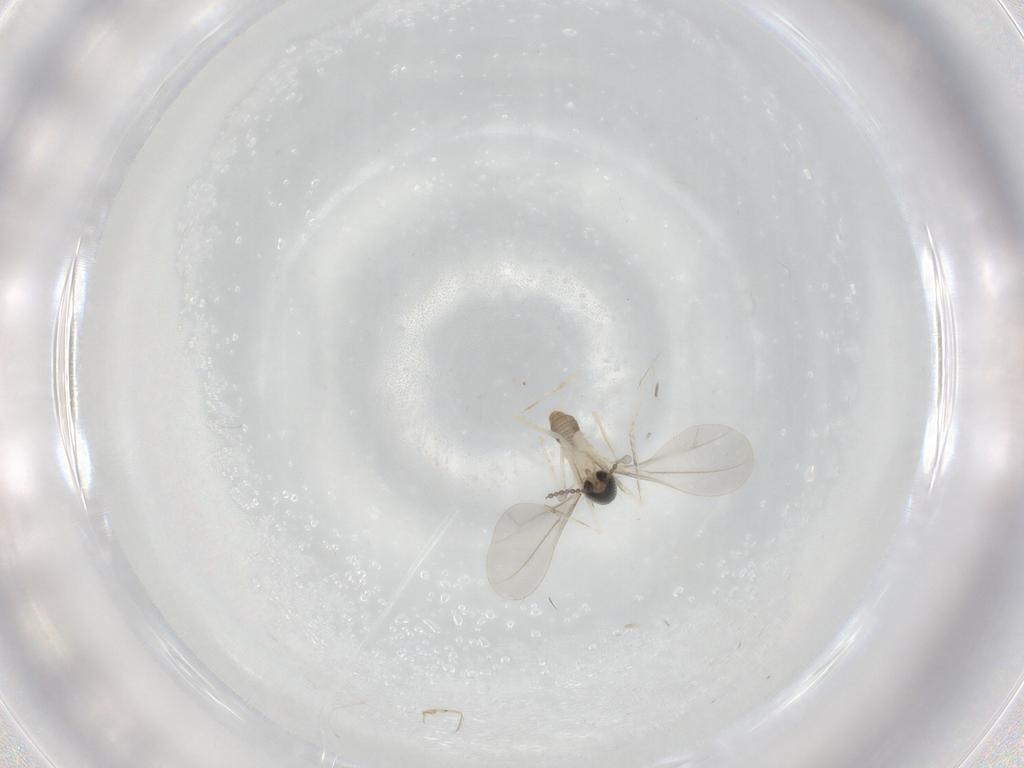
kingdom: Animalia
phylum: Arthropoda
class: Insecta
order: Diptera
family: Cecidomyiidae
